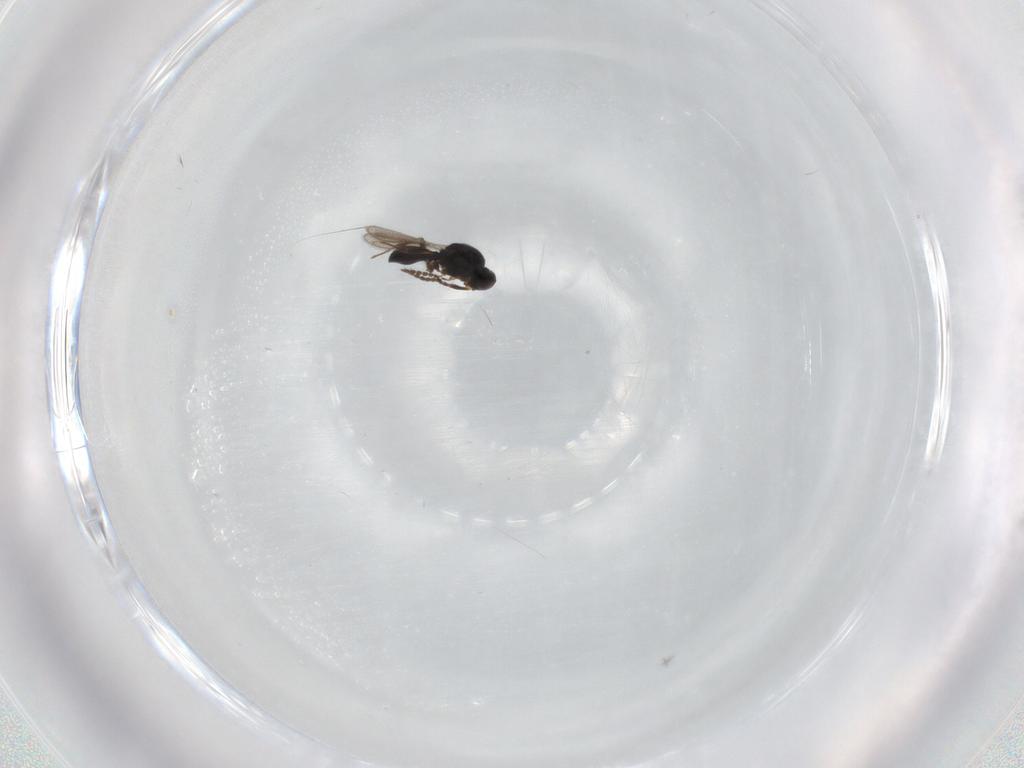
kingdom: Animalia
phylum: Arthropoda
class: Insecta
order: Hymenoptera
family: Platygastridae
